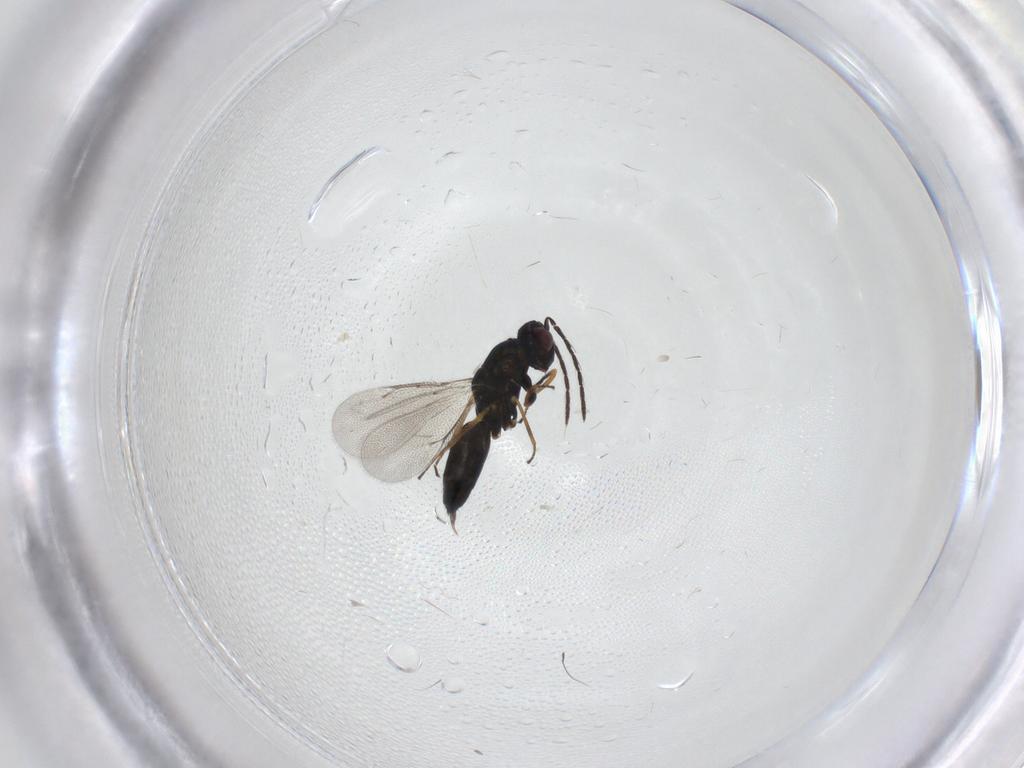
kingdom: Animalia
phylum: Arthropoda
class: Insecta
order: Hymenoptera
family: Eulophidae
